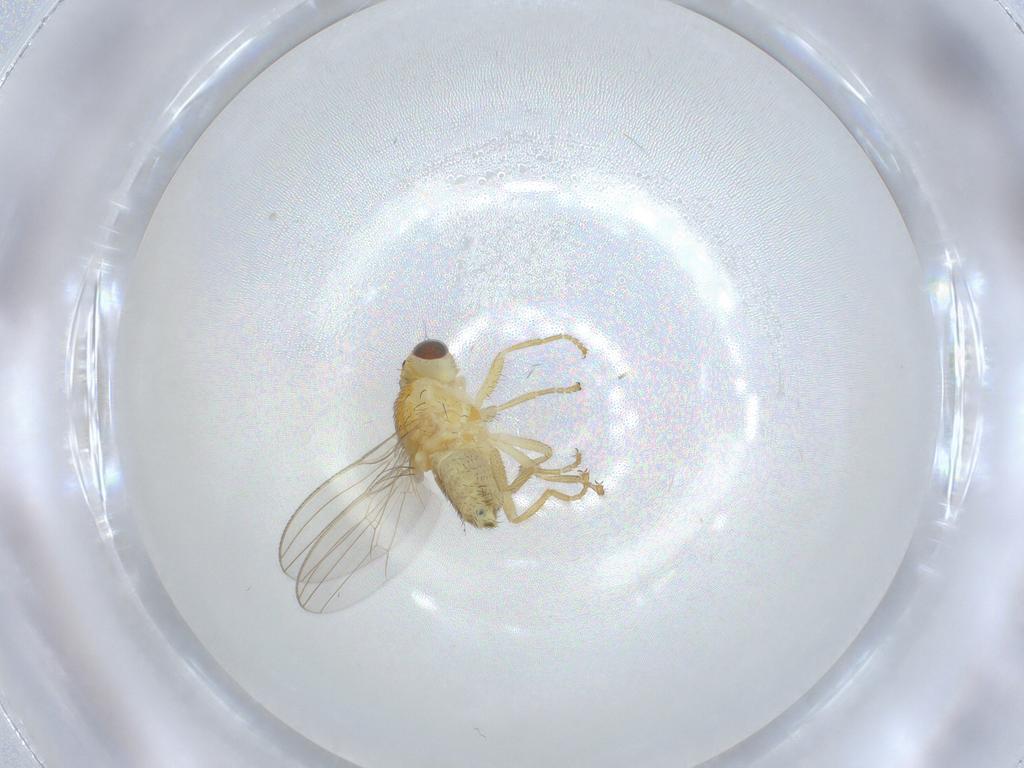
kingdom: Animalia
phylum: Arthropoda
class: Insecta
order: Diptera
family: Chyromyidae
